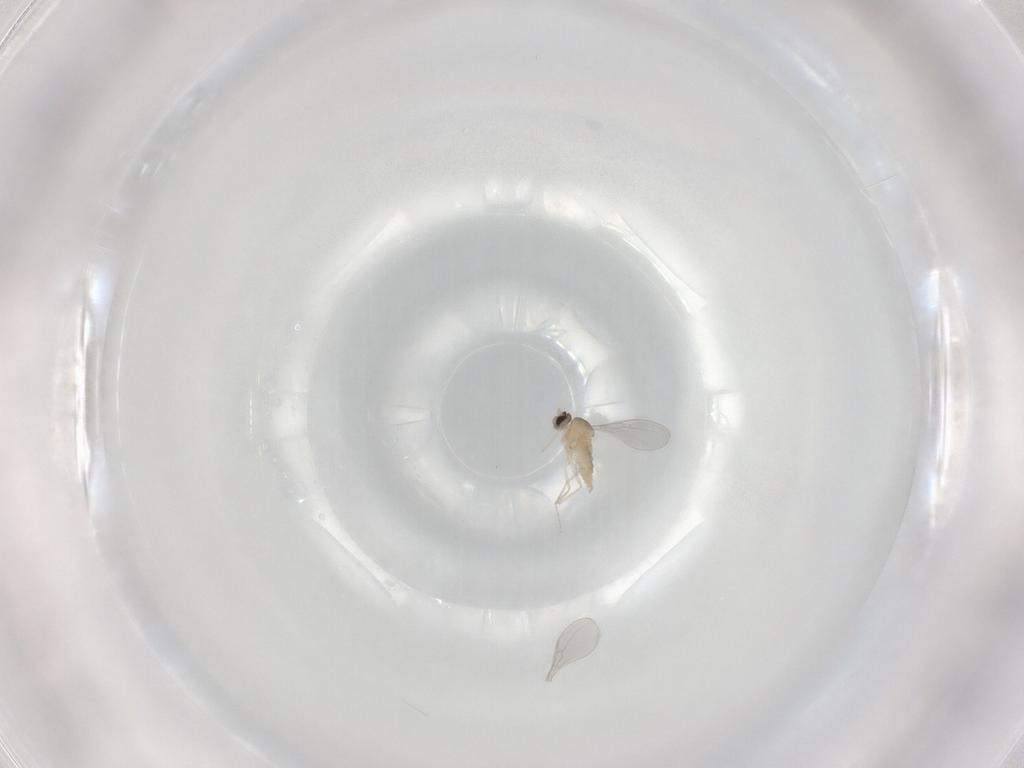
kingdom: Animalia
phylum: Arthropoda
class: Insecta
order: Diptera
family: Cecidomyiidae
